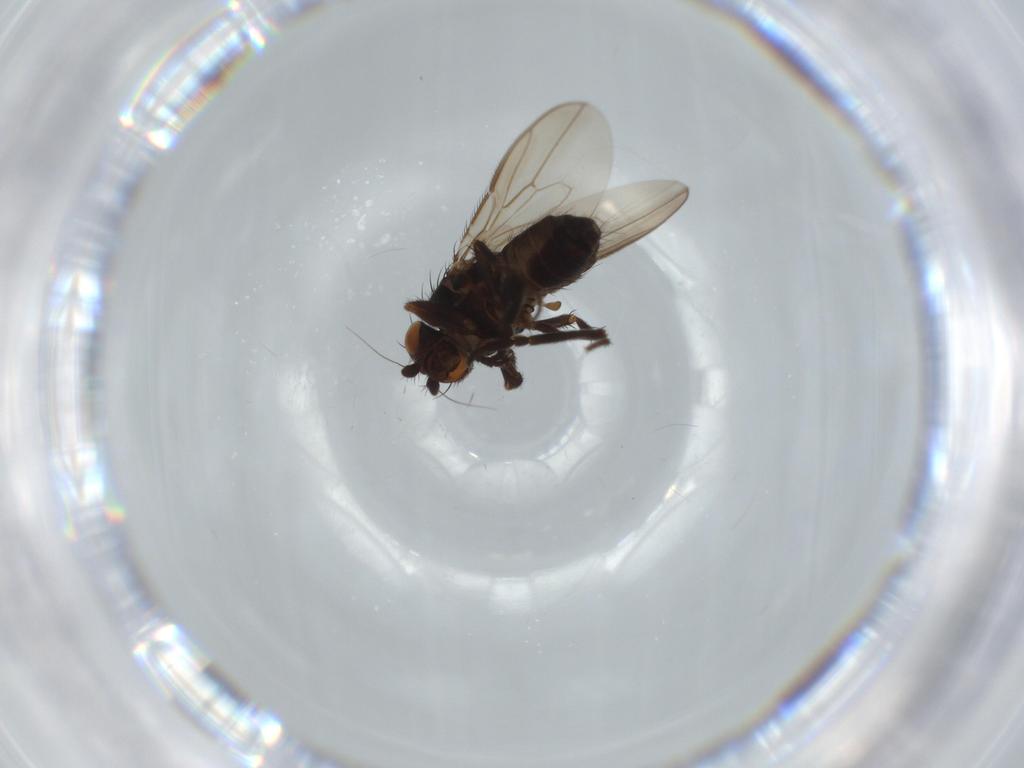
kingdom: Animalia
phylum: Arthropoda
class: Insecta
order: Diptera
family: Sphaeroceridae
